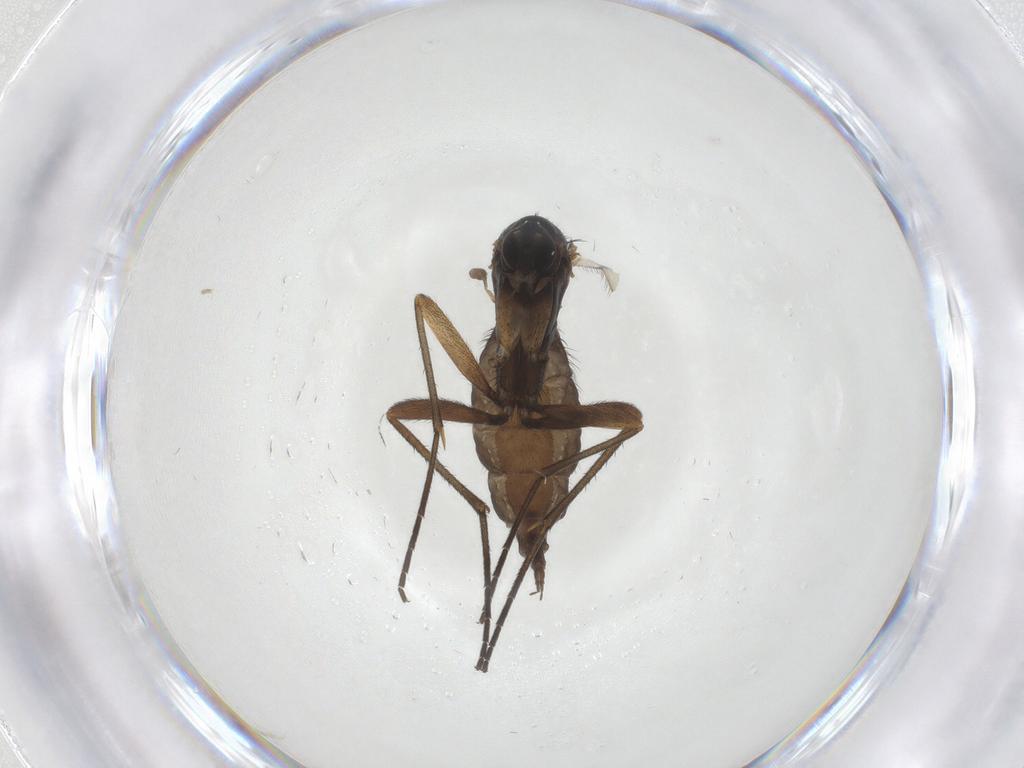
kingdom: Animalia
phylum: Arthropoda
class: Insecta
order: Diptera
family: Sciaridae
